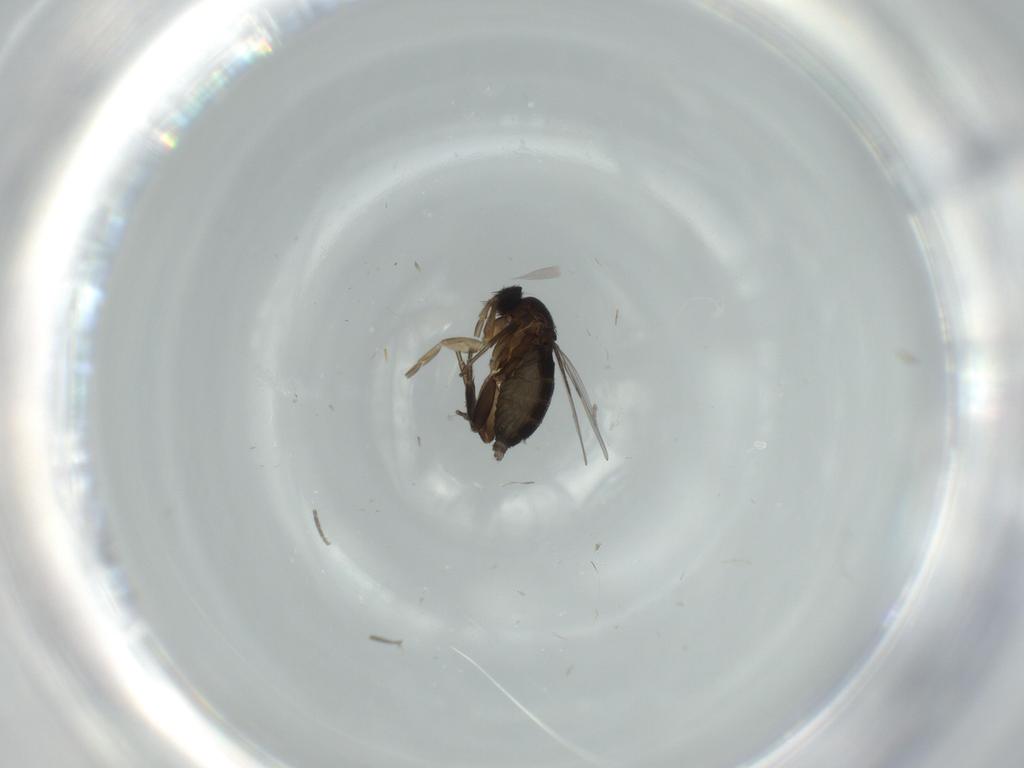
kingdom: Animalia
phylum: Arthropoda
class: Insecta
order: Diptera
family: Phoridae
